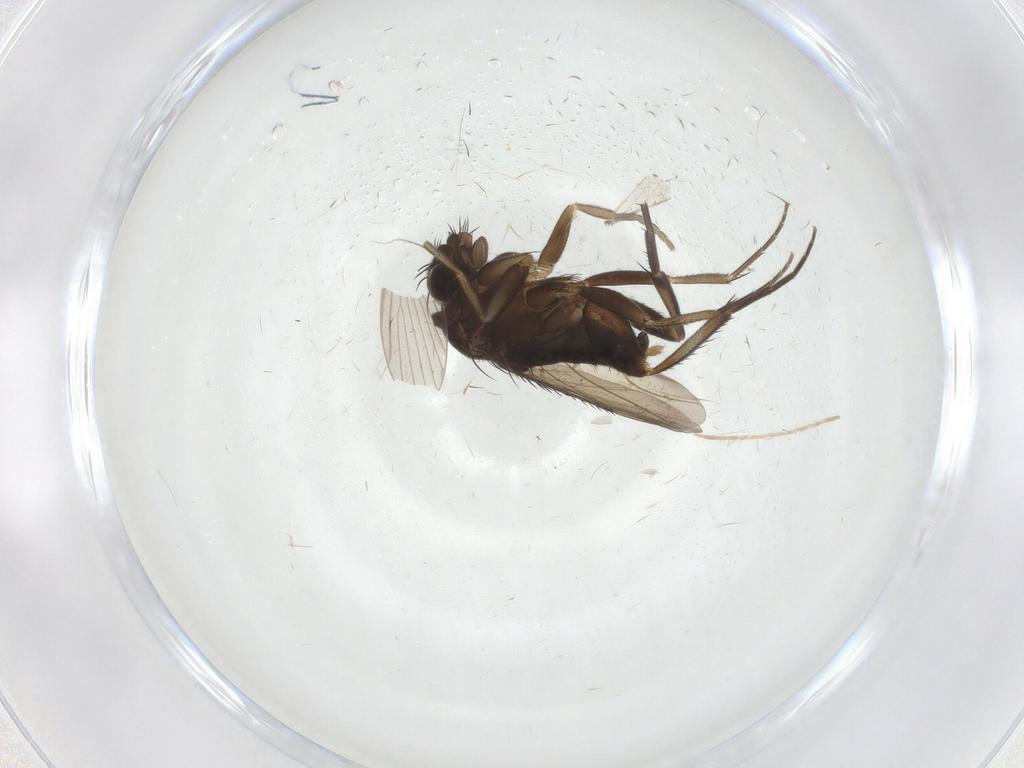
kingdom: Animalia
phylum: Arthropoda
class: Insecta
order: Diptera
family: Phoridae
